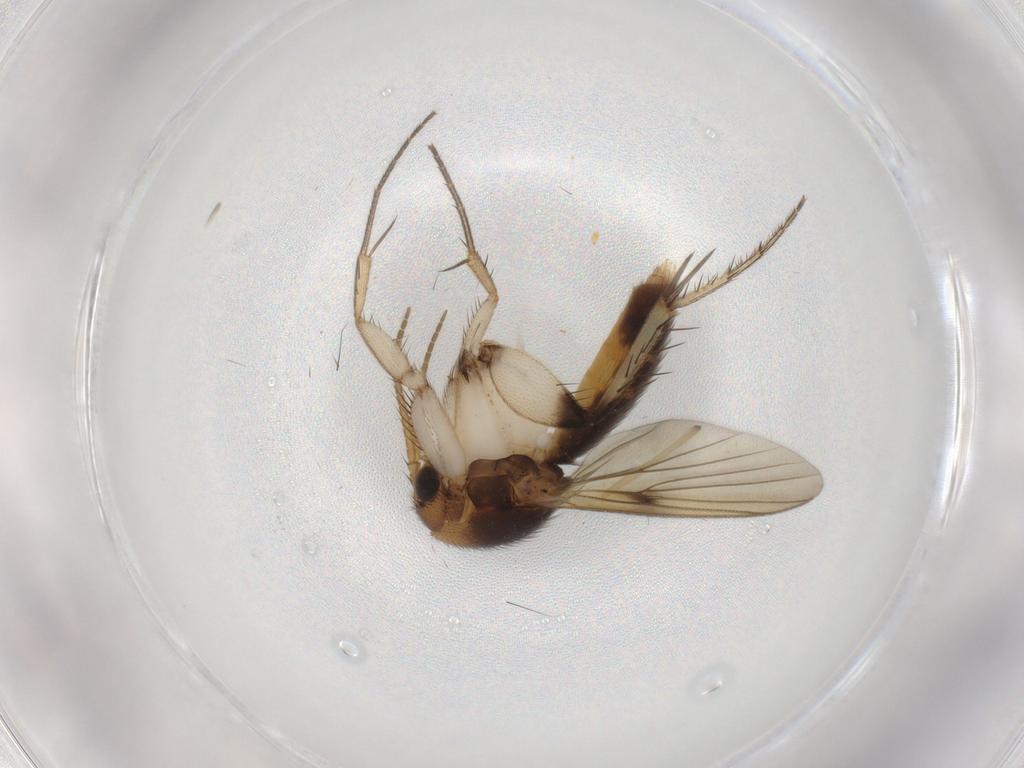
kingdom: Animalia
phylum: Arthropoda
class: Insecta
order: Diptera
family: Phoridae
